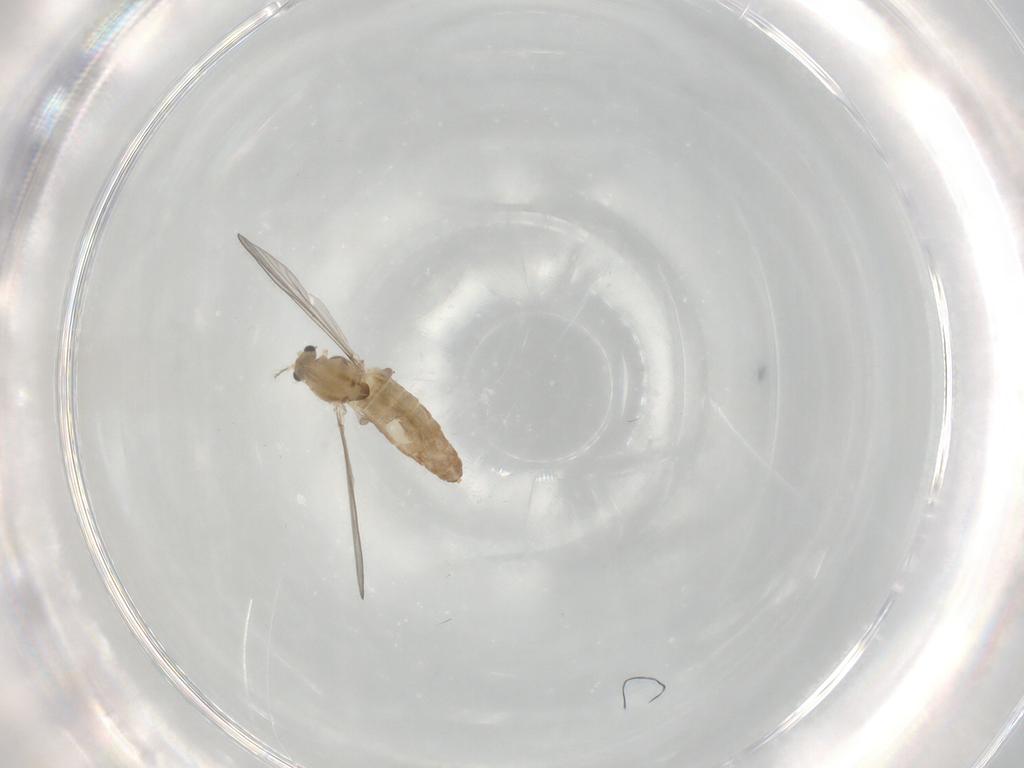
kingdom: Animalia
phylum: Arthropoda
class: Insecta
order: Diptera
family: Chironomidae
